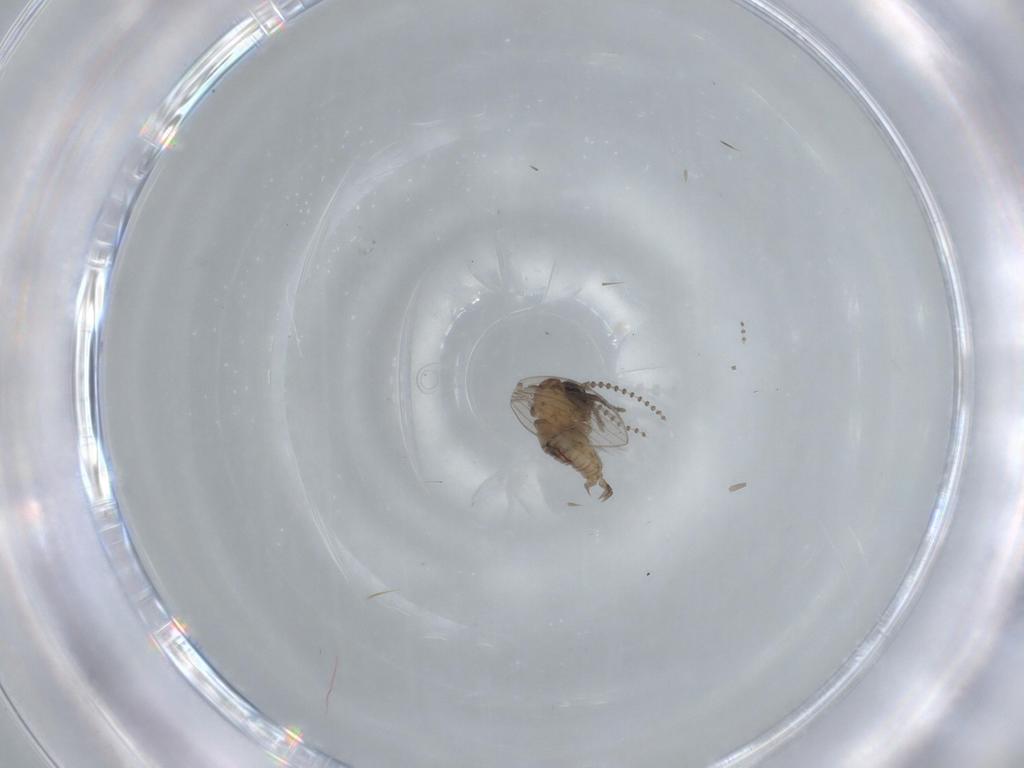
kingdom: Animalia
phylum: Arthropoda
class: Insecta
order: Diptera
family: Psychodidae
